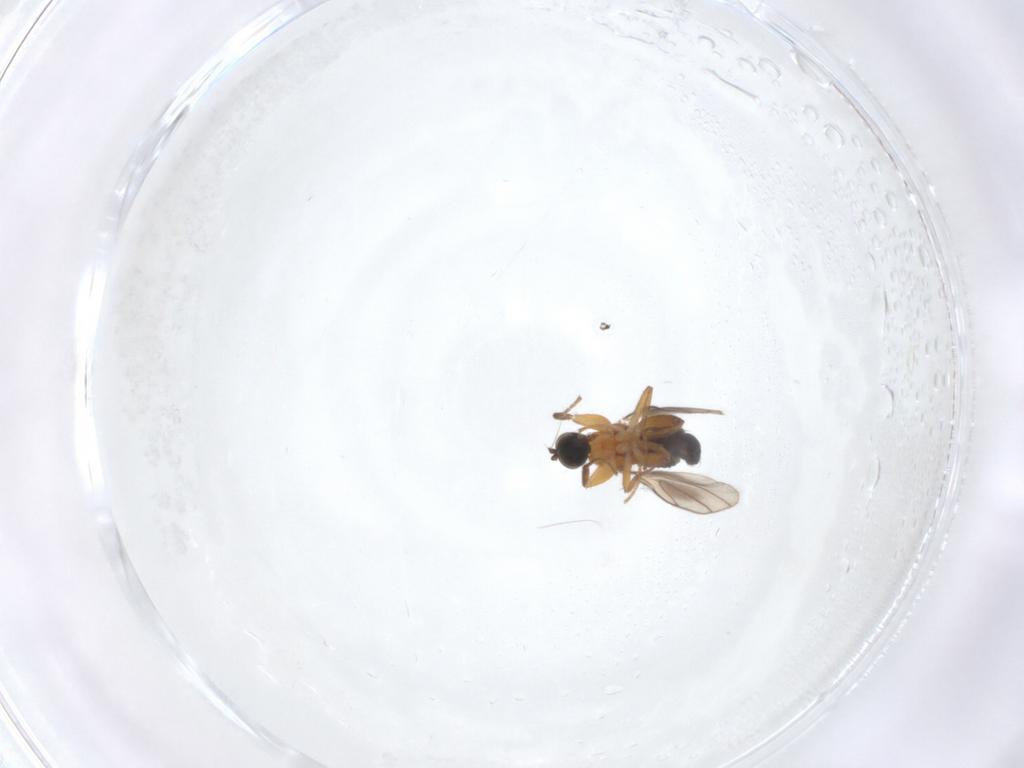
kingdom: Animalia
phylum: Arthropoda
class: Insecta
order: Diptera
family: Hybotidae
